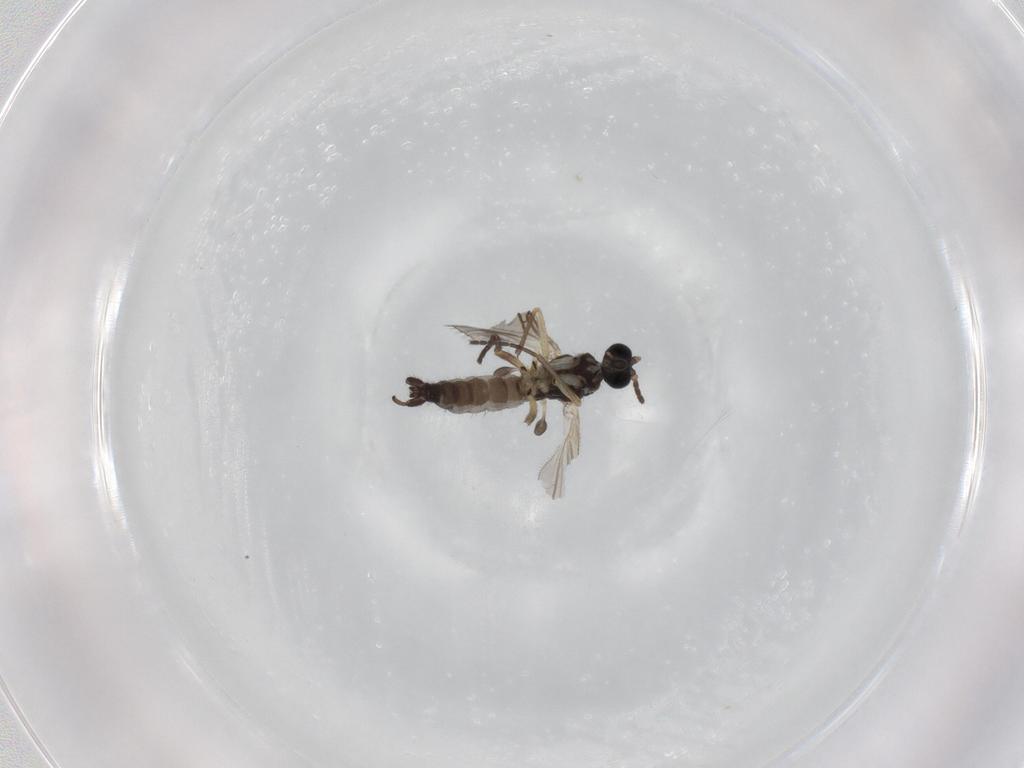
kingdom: Animalia
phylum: Arthropoda
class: Insecta
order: Diptera
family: Sciaridae
